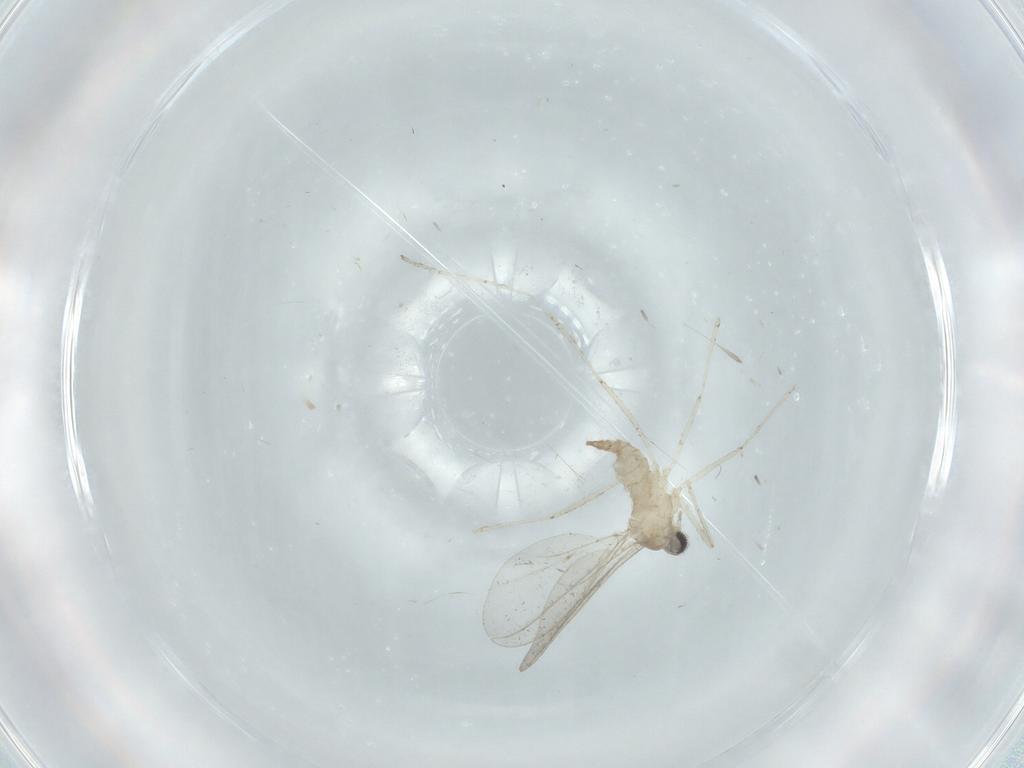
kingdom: Animalia
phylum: Arthropoda
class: Insecta
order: Diptera
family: Cecidomyiidae
